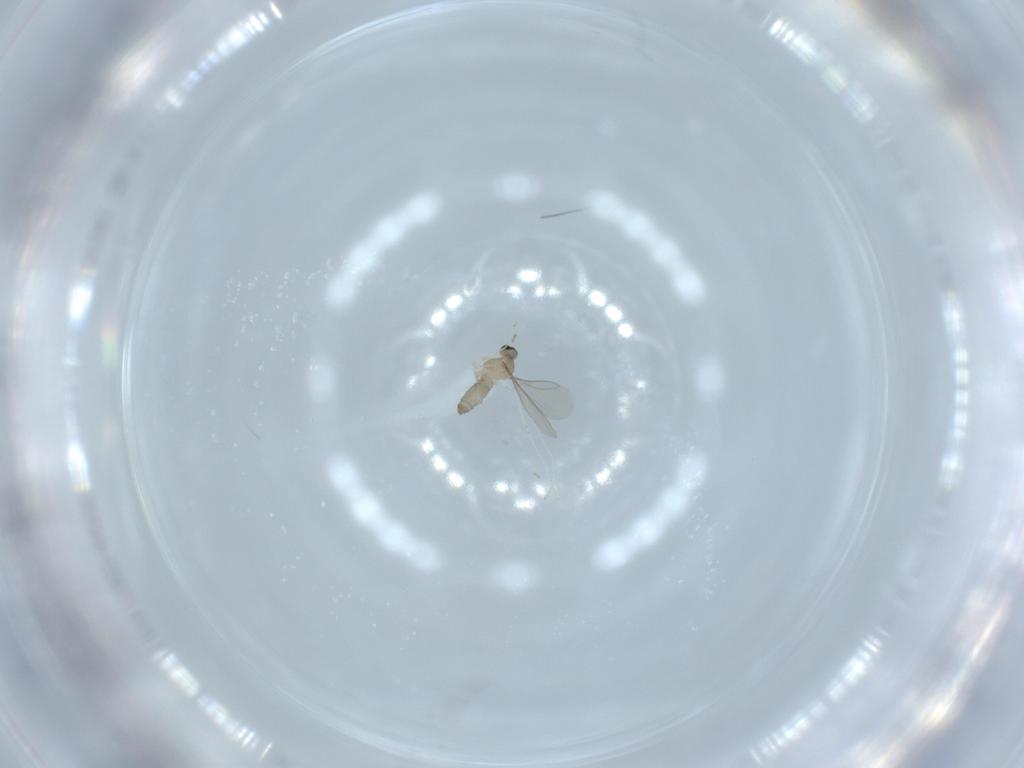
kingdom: Animalia
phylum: Arthropoda
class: Insecta
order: Diptera
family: Cecidomyiidae
